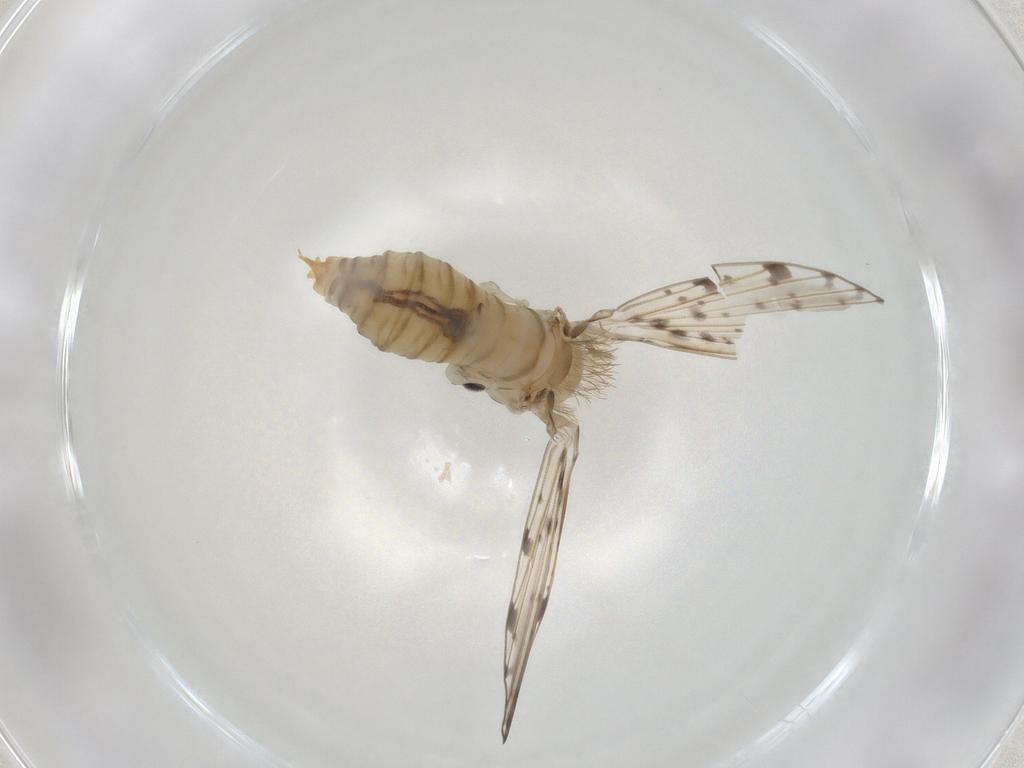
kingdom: Animalia
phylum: Arthropoda
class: Insecta
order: Diptera
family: Psychodidae
